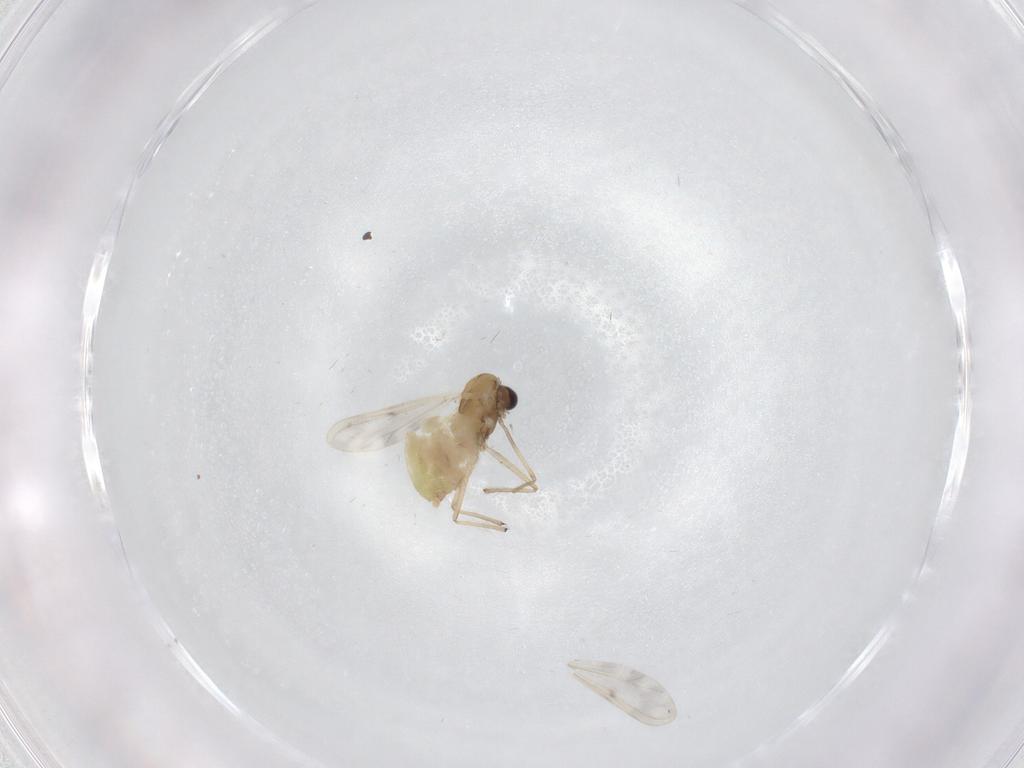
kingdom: Animalia
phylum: Arthropoda
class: Insecta
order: Diptera
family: Chironomidae
